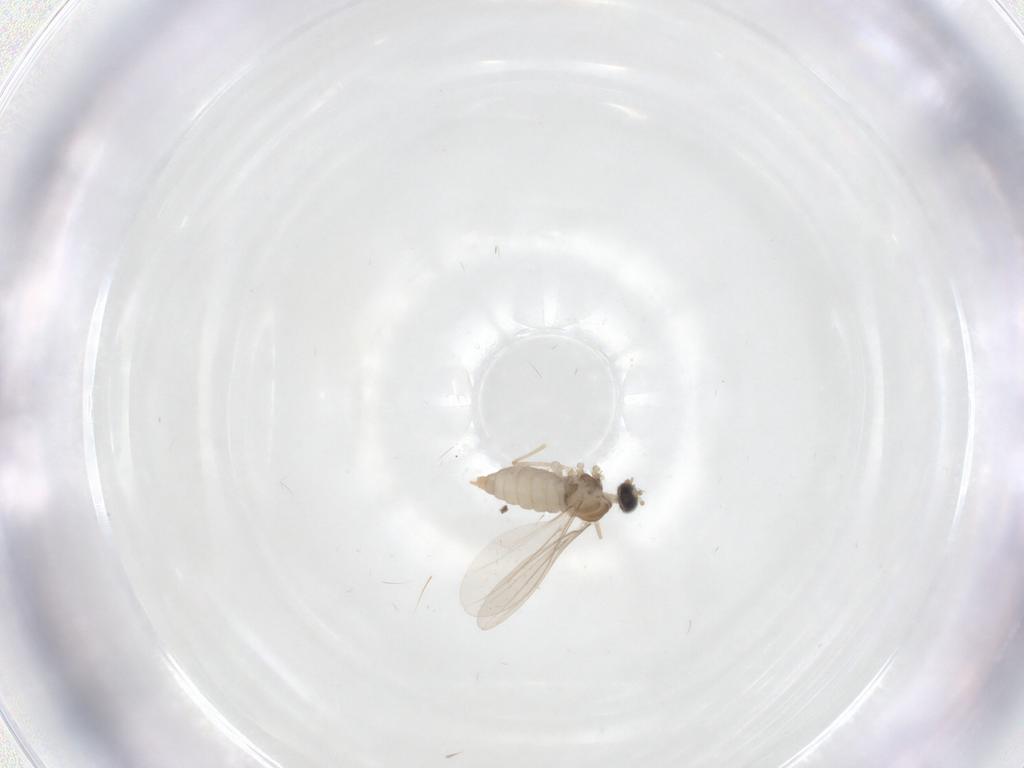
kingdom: Animalia
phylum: Arthropoda
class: Insecta
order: Diptera
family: Cecidomyiidae
